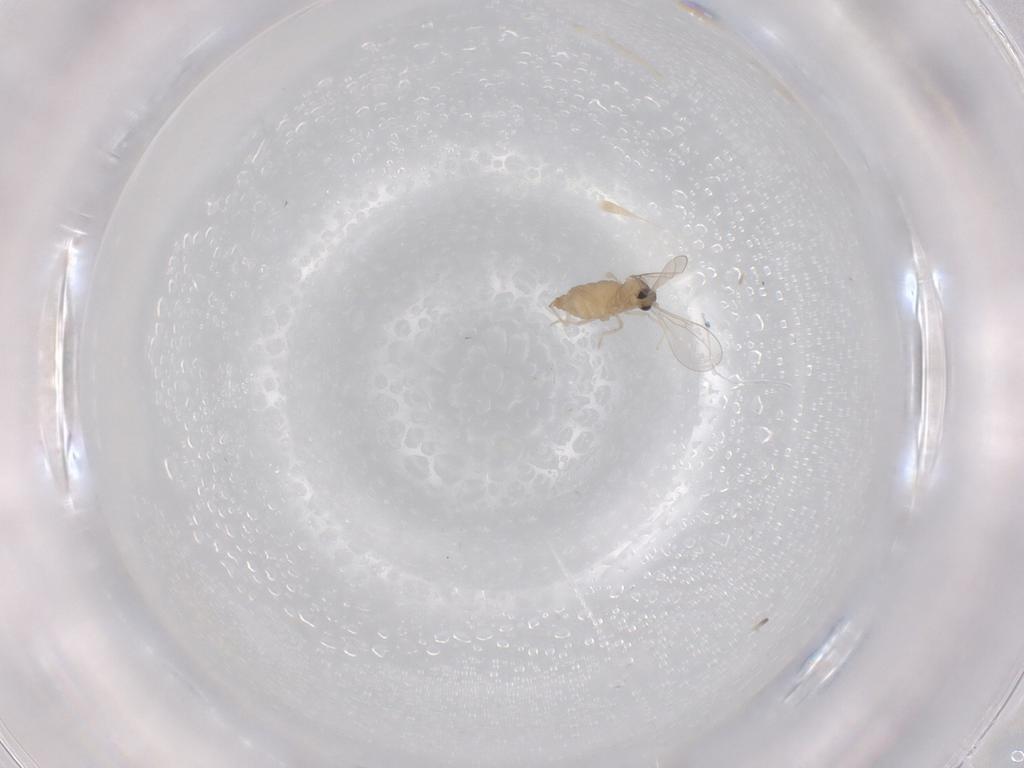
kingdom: Animalia
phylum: Arthropoda
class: Insecta
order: Diptera
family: Cecidomyiidae
